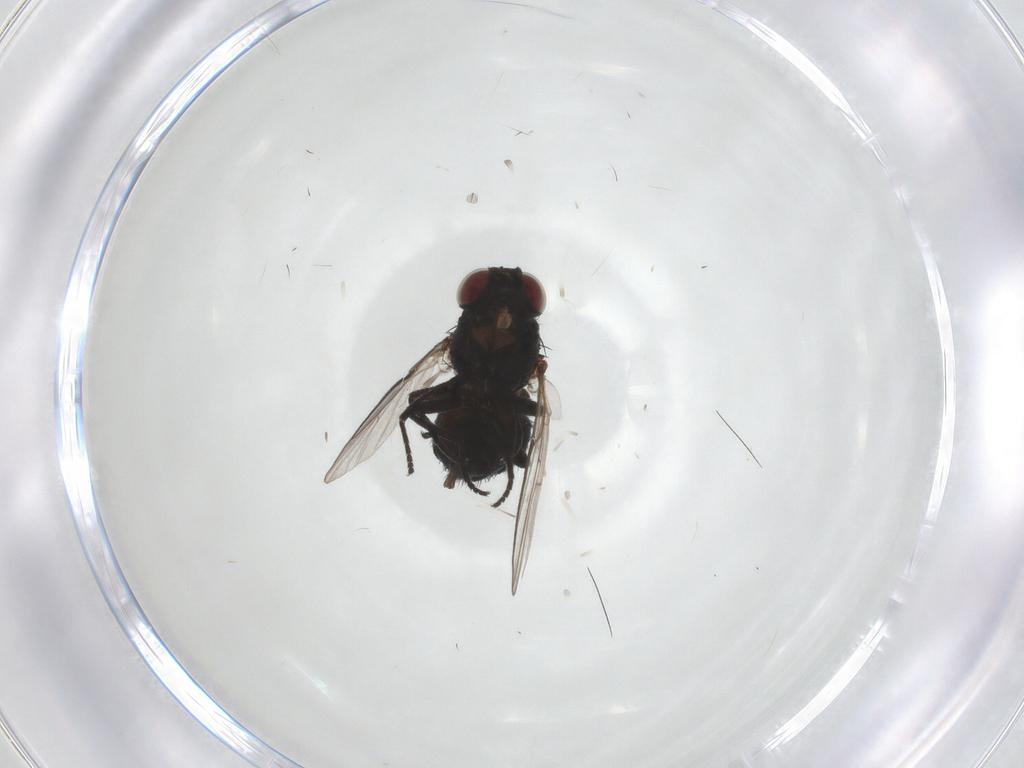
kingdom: Animalia
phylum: Arthropoda
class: Insecta
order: Diptera
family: Agromyzidae
